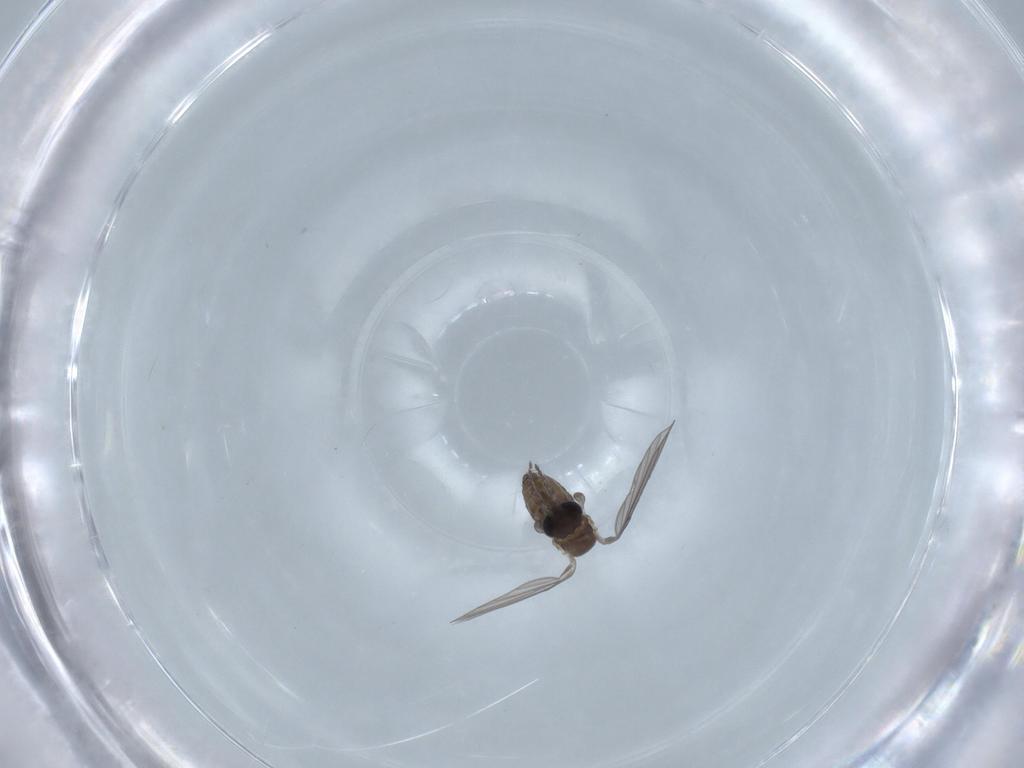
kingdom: Animalia
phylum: Arthropoda
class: Insecta
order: Diptera
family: Psychodidae
